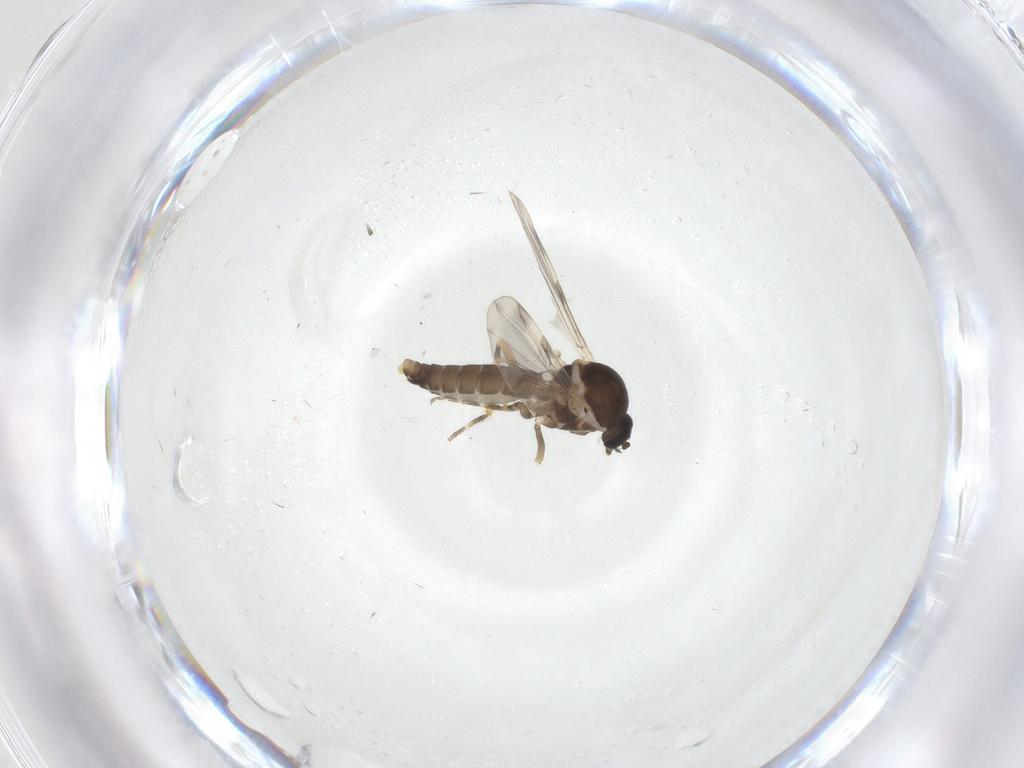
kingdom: Animalia
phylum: Arthropoda
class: Insecta
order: Diptera
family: Ceratopogonidae
